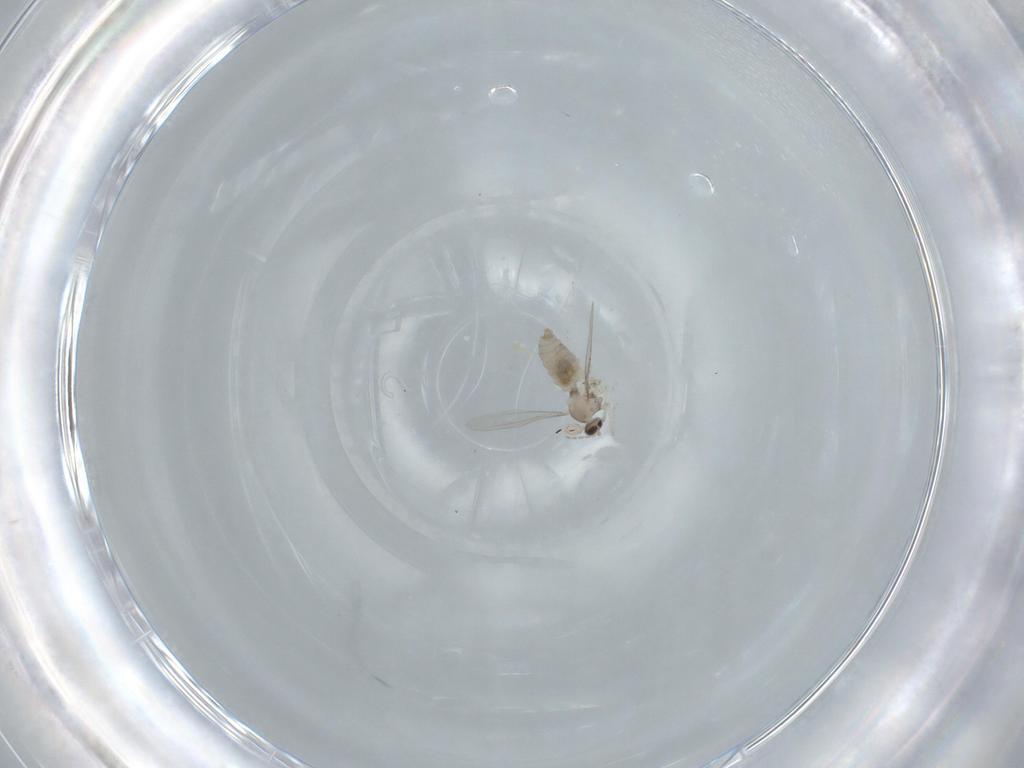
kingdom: Animalia
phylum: Arthropoda
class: Insecta
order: Diptera
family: Cecidomyiidae
